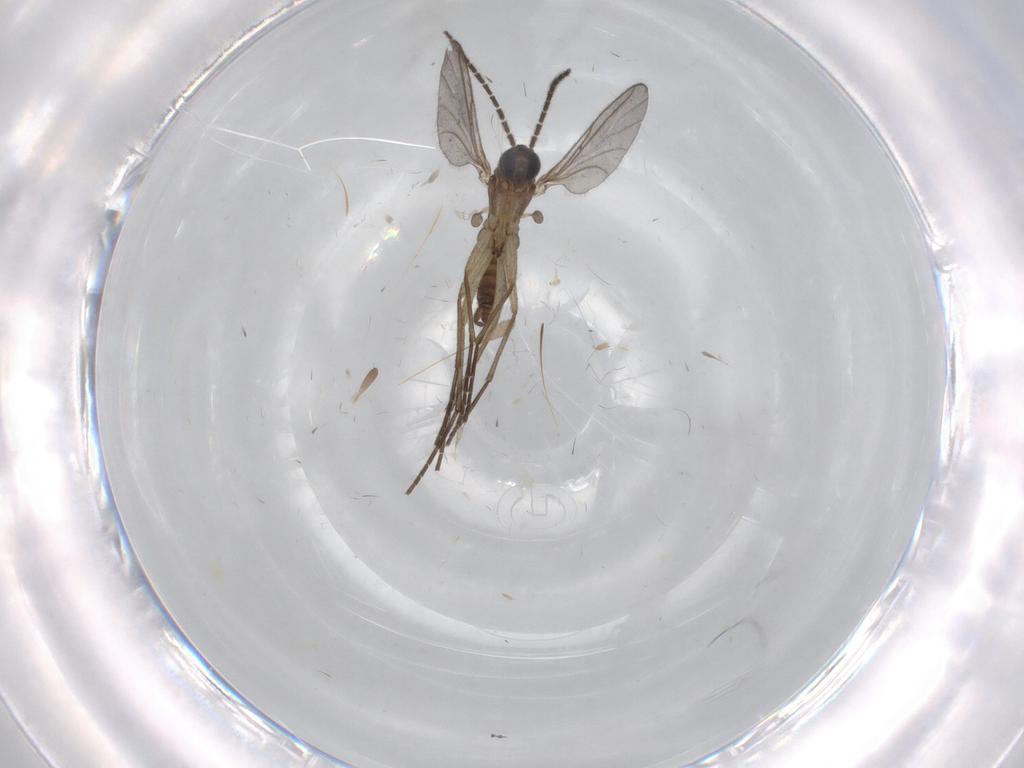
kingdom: Animalia
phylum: Arthropoda
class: Insecta
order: Diptera
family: Sciaridae
